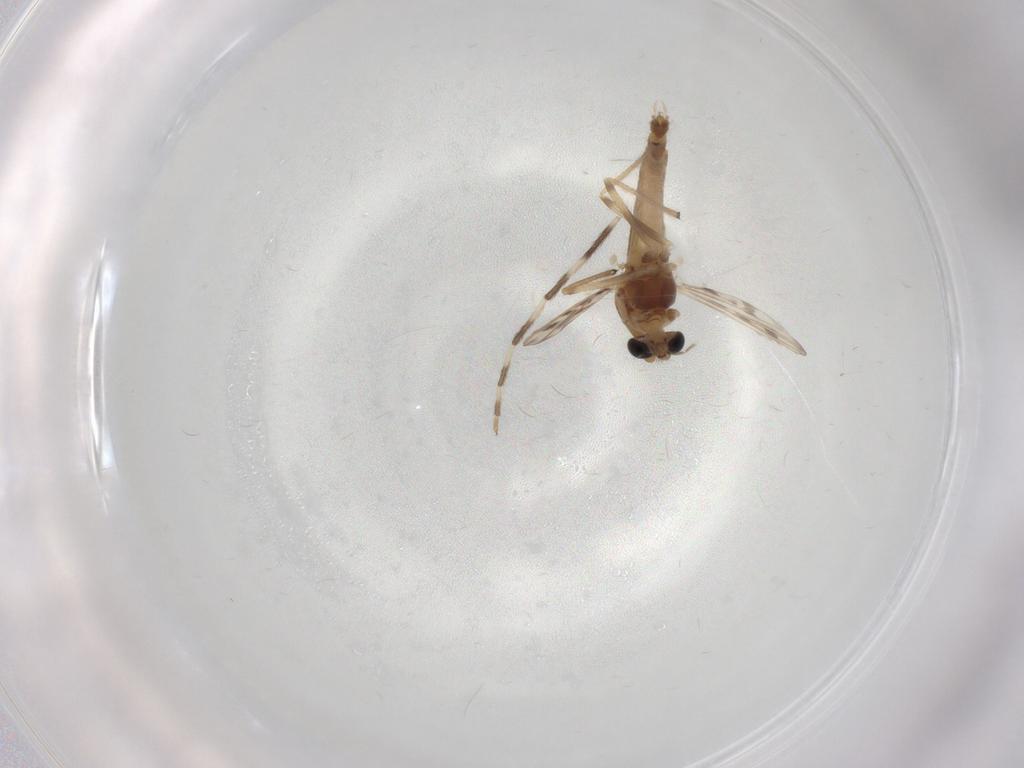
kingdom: Animalia
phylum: Arthropoda
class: Insecta
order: Diptera
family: Chironomidae
